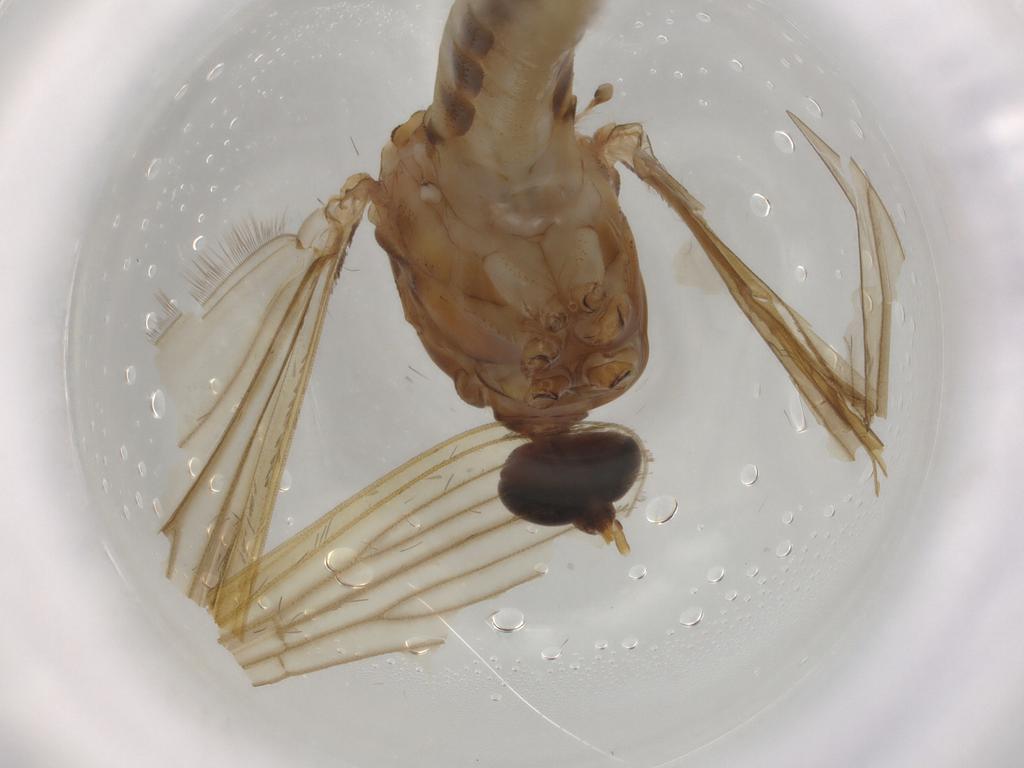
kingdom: Animalia
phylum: Arthropoda
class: Insecta
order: Diptera
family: Culicidae
